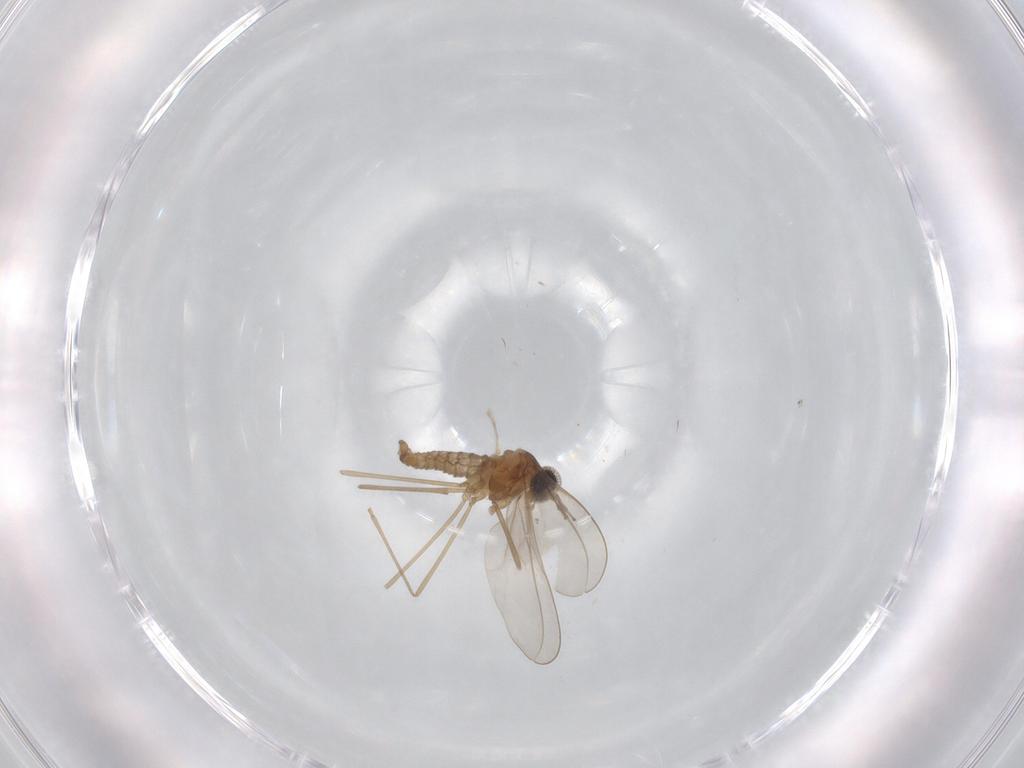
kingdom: Animalia
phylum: Arthropoda
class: Insecta
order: Diptera
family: Cecidomyiidae
